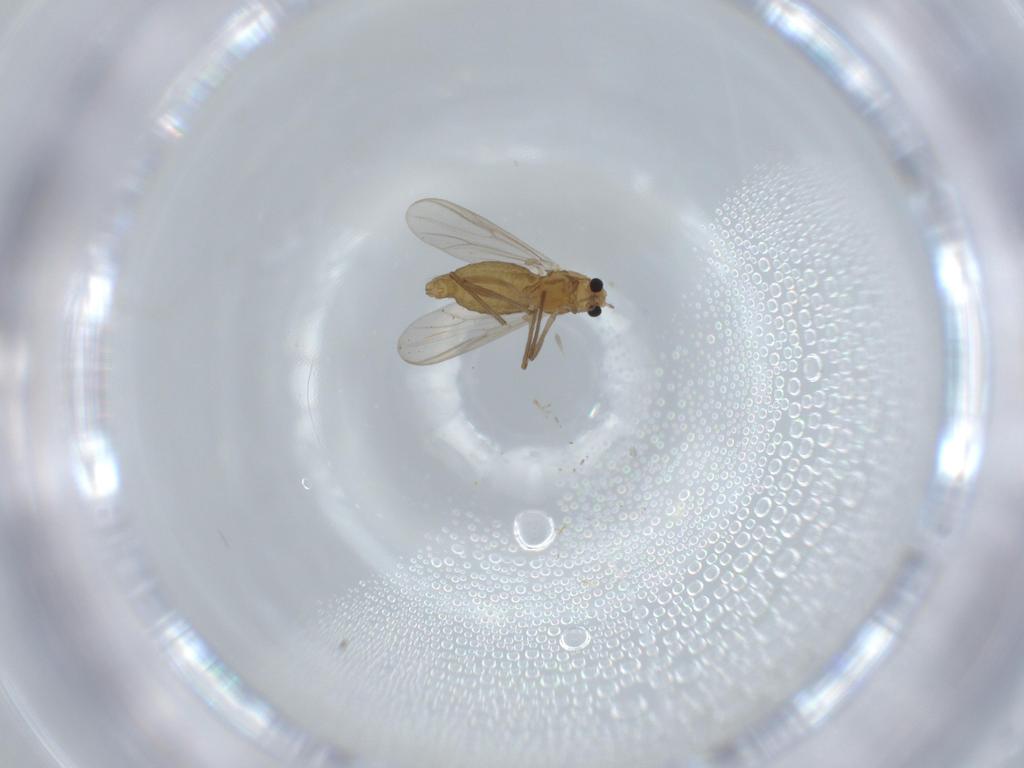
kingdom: Animalia
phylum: Arthropoda
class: Insecta
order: Diptera
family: Chironomidae
